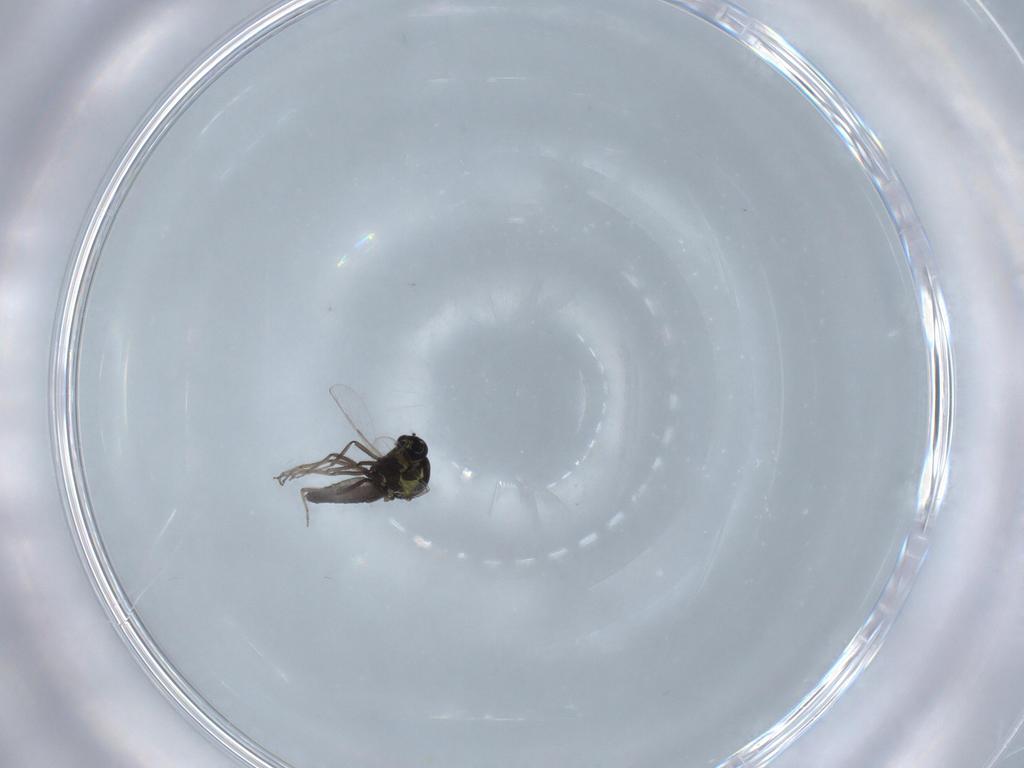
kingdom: Animalia
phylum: Arthropoda
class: Insecta
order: Diptera
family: Ceratopogonidae
